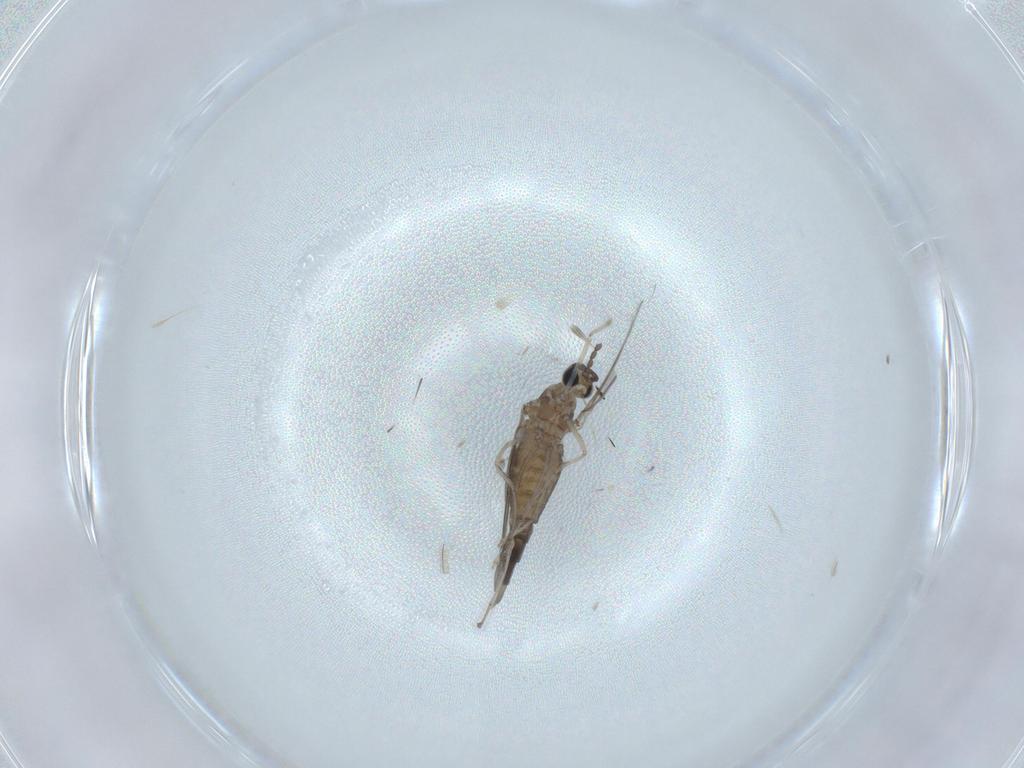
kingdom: Animalia
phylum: Arthropoda
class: Insecta
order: Diptera
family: Cecidomyiidae
